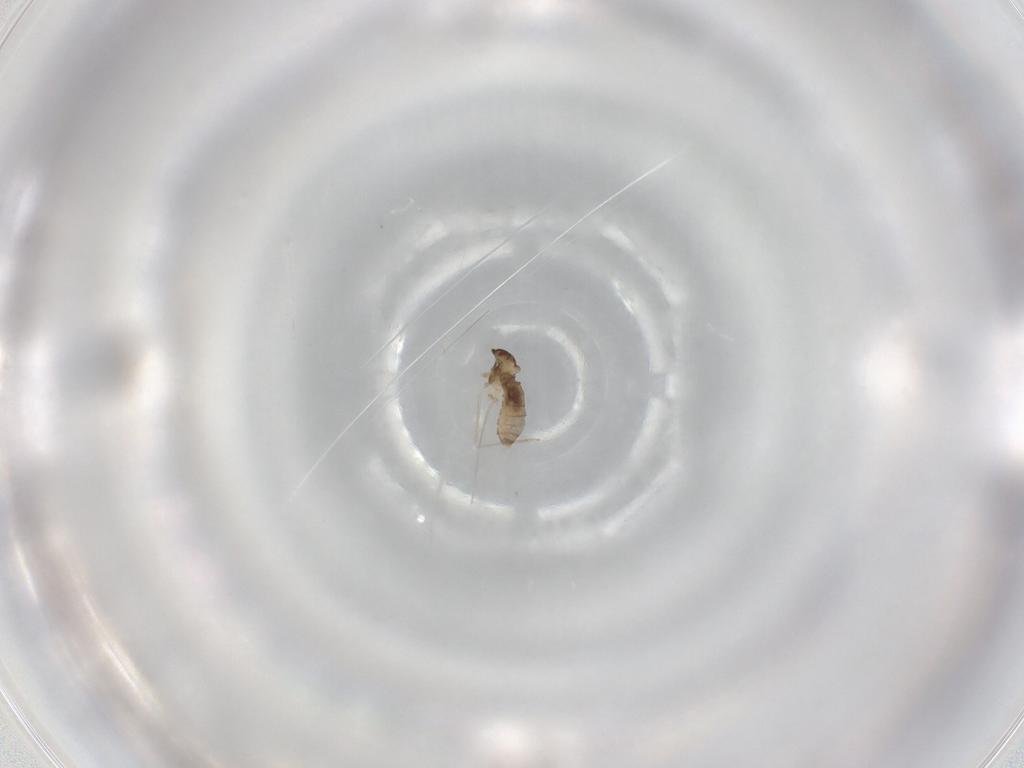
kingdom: Animalia
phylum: Arthropoda
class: Insecta
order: Diptera
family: Cecidomyiidae
